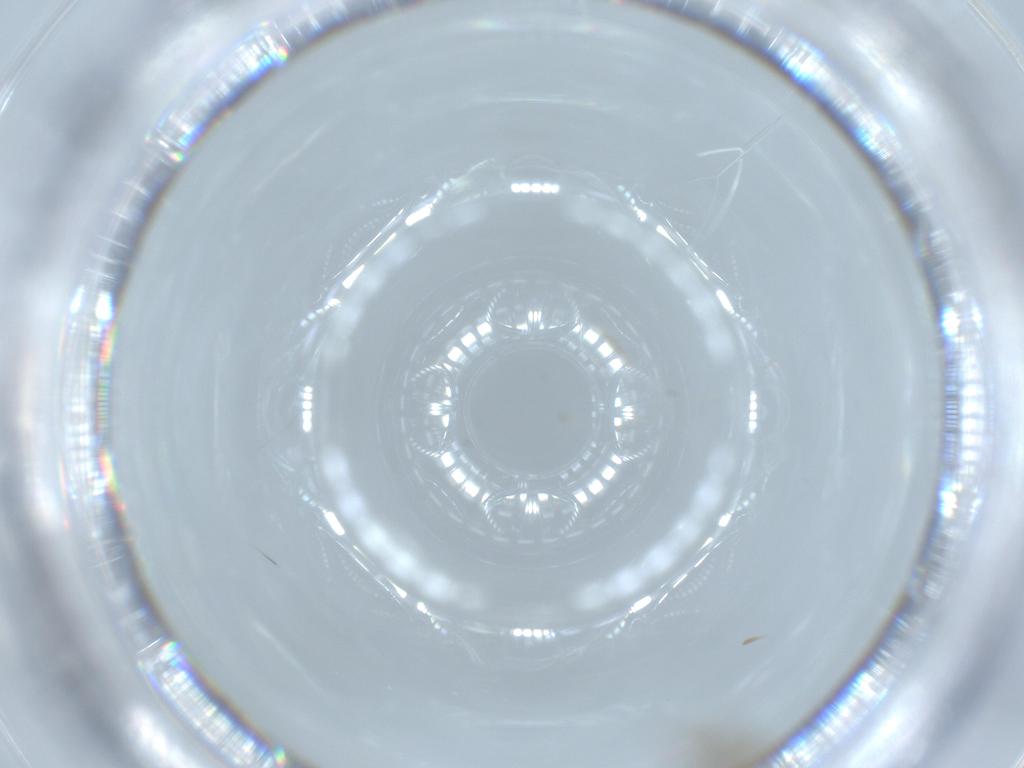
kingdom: Animalia
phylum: Arthropoda
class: Insecta
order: Diptera
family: Cecidomyiidae
